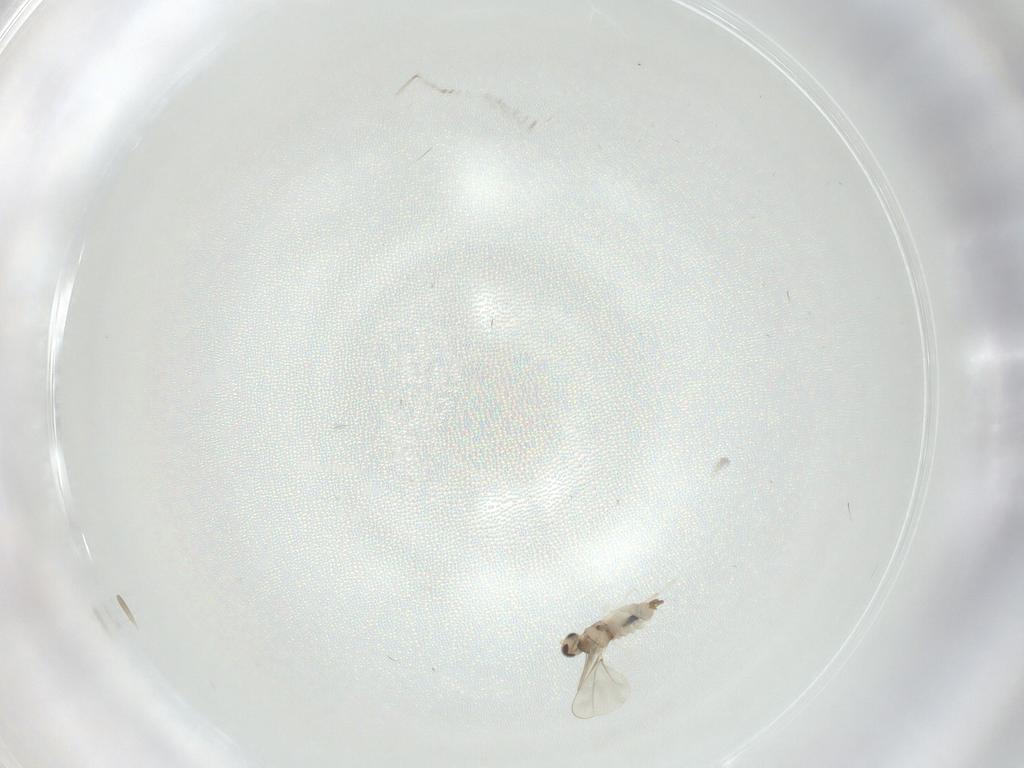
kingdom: Animalia
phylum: Arthropoda
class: Insecta
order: Diptera
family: Cecidomyiidae
